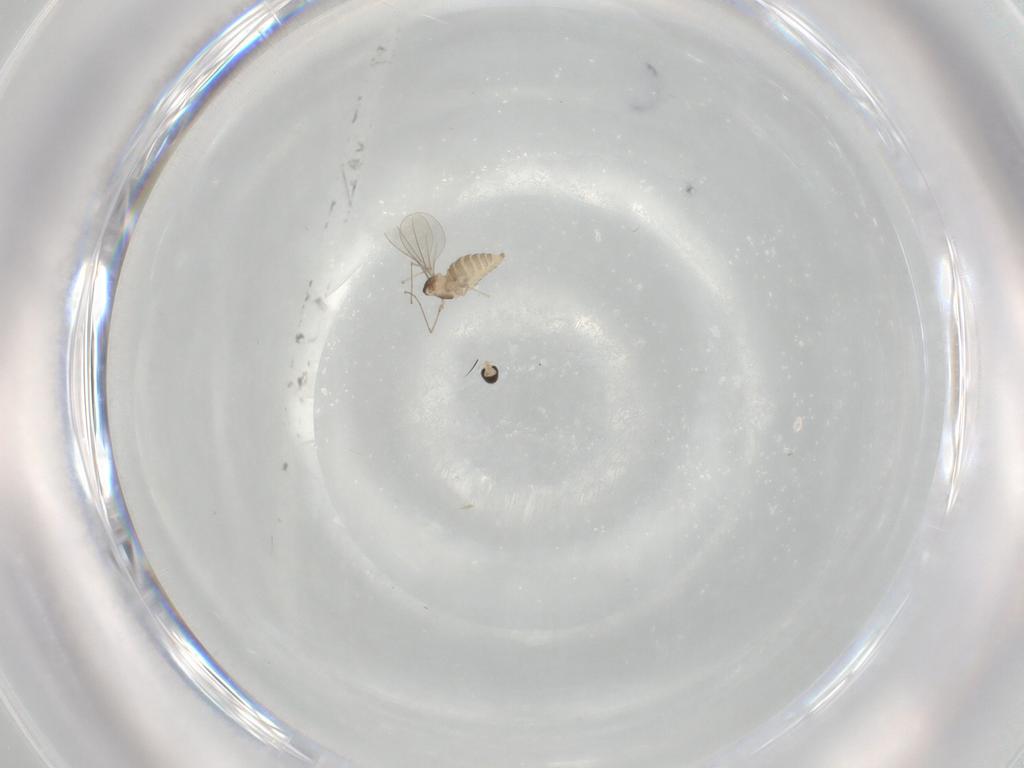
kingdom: Animalia
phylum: Arthropoda
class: Insecta
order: Diptera
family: Cecidomyiidae
